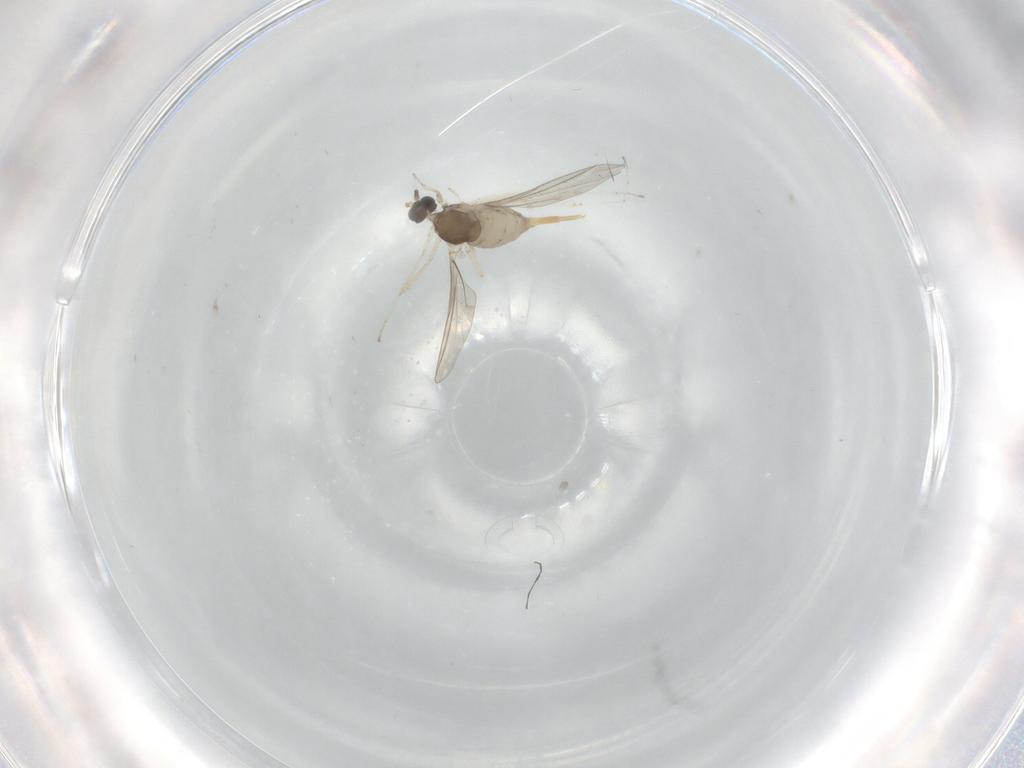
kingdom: Animalia
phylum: Arthropoda
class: Insecta
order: Diptera
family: Cecidomyiidae
